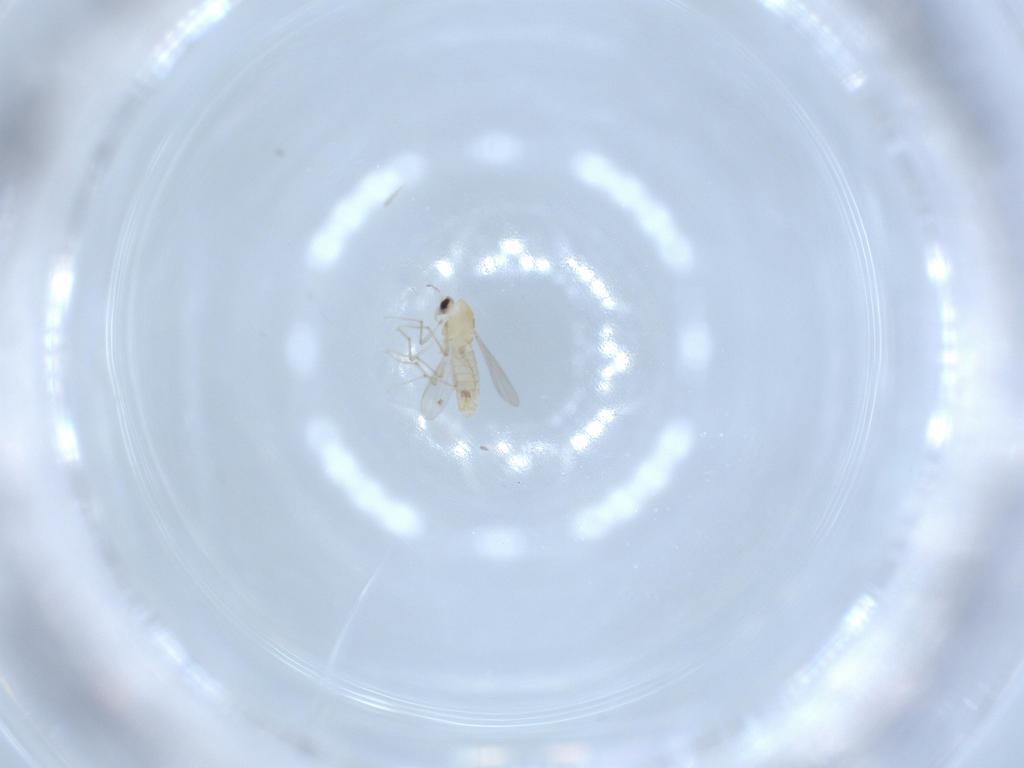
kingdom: Animalia
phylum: Arthropoda
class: Insecta
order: Diptera
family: Chironomidae
